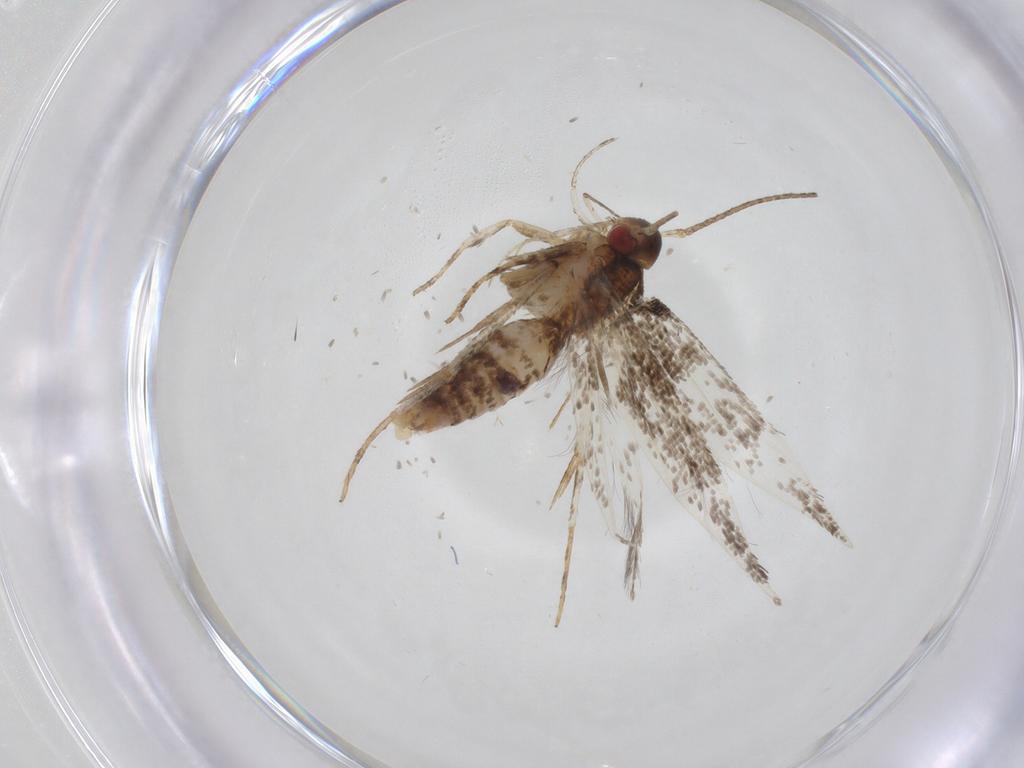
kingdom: Animalia
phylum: Arthropoda
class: Insecta
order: Lepidoptera
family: Cosmopterigidae
